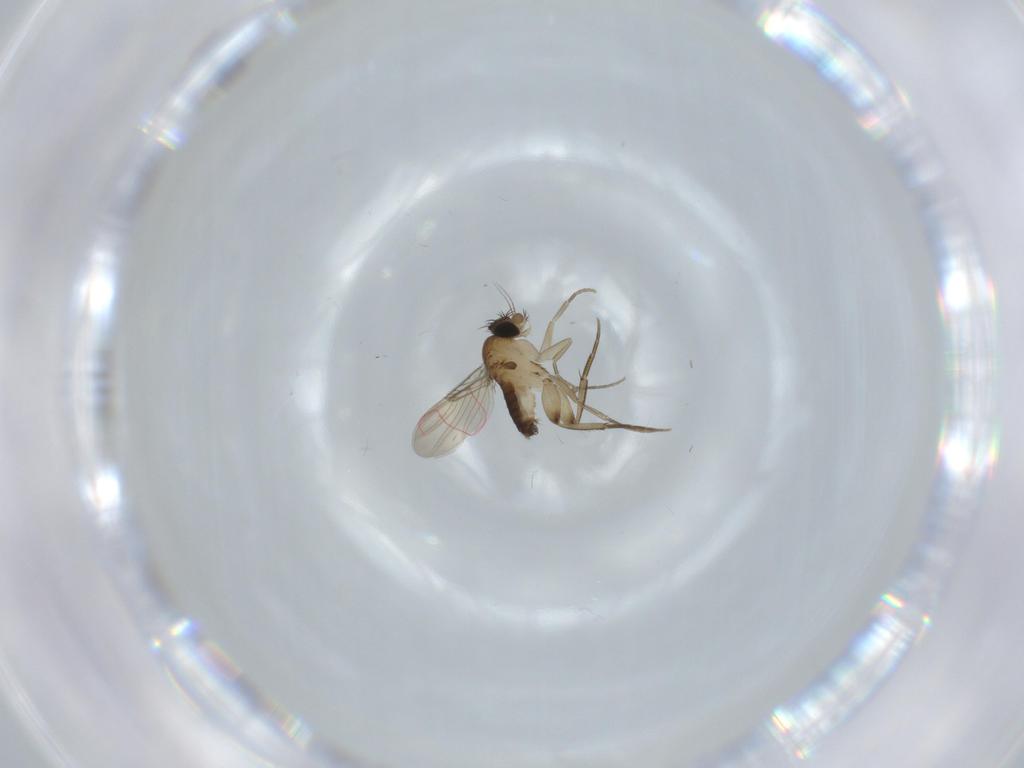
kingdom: Animalia
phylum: Arthropoda
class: Insecta
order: Diptera
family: Phoridae
